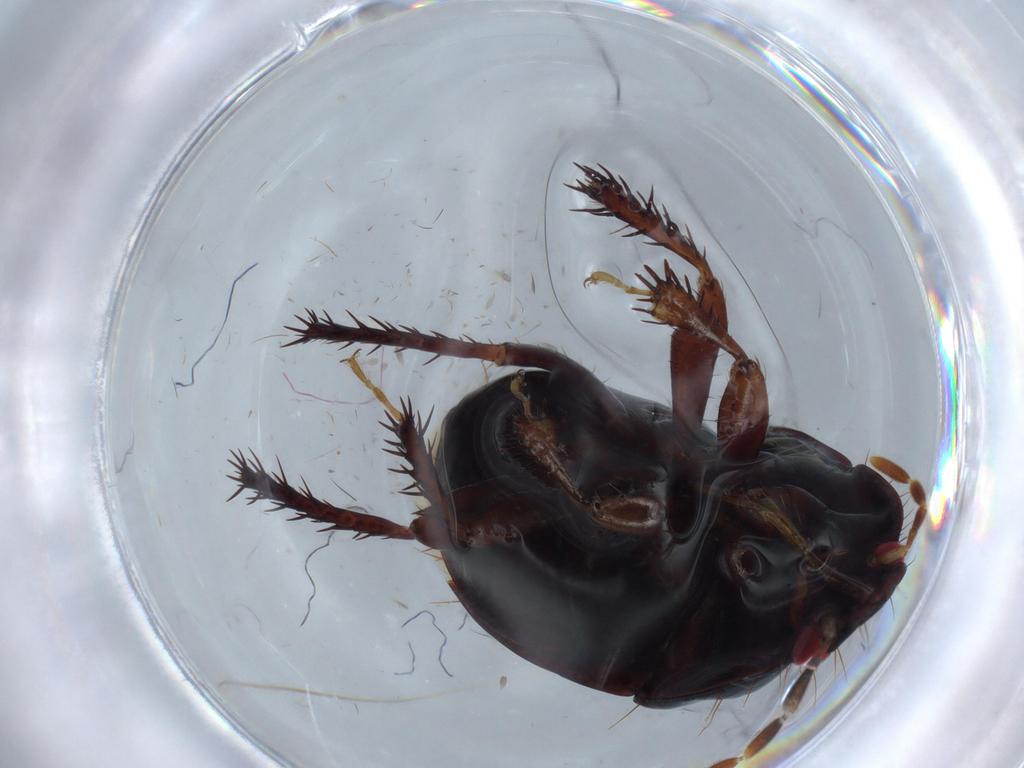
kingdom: Animalia
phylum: Arthropoda
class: Insecta
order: Hemiptera
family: Cydnidae
